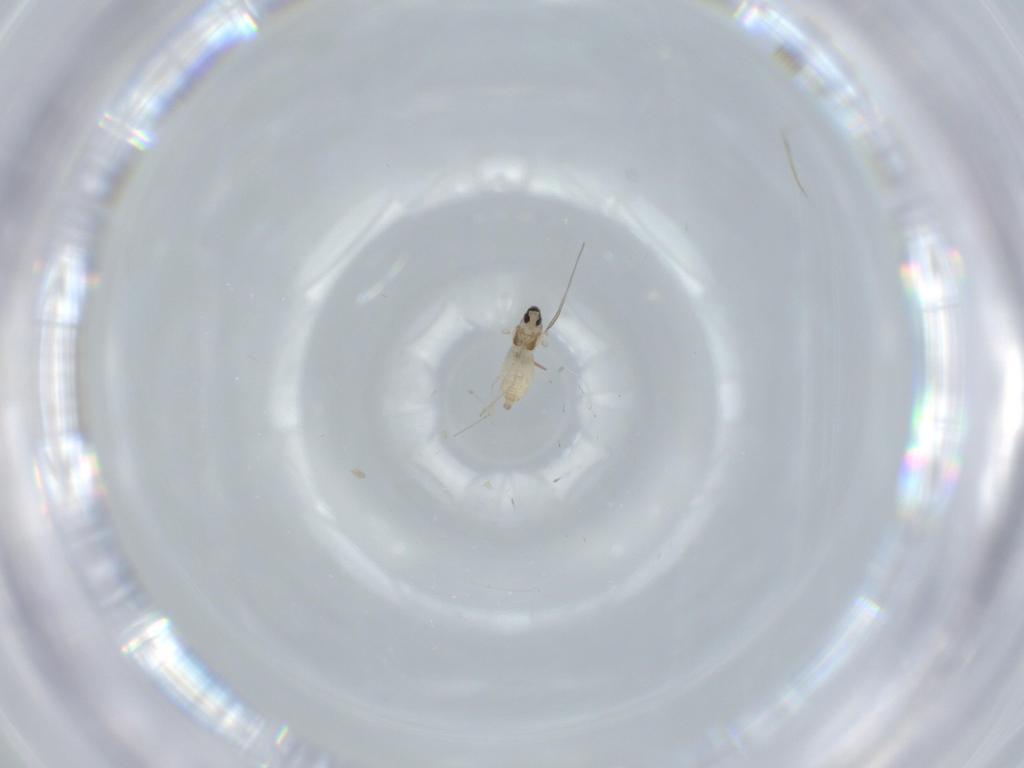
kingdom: Animalia
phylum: Arthropoda
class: Insecta
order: Diptera
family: Cecidomyiidae
